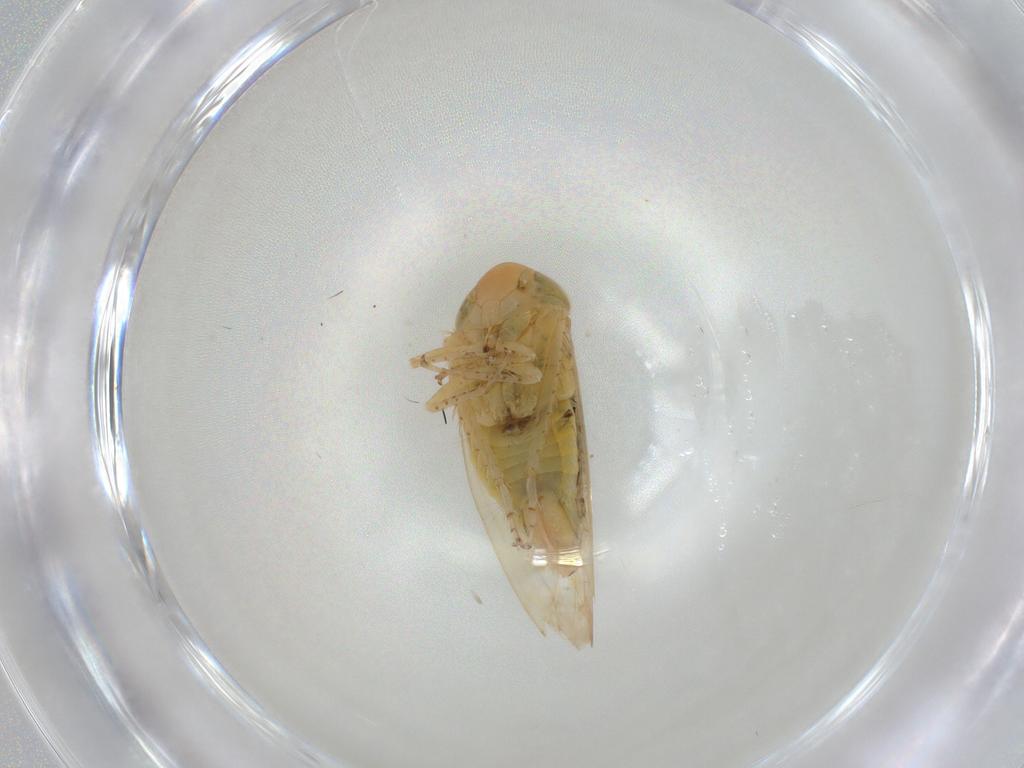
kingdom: Animalia
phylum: Arthropoda
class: Insecta
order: Hemiptera
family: Cicadellidae
